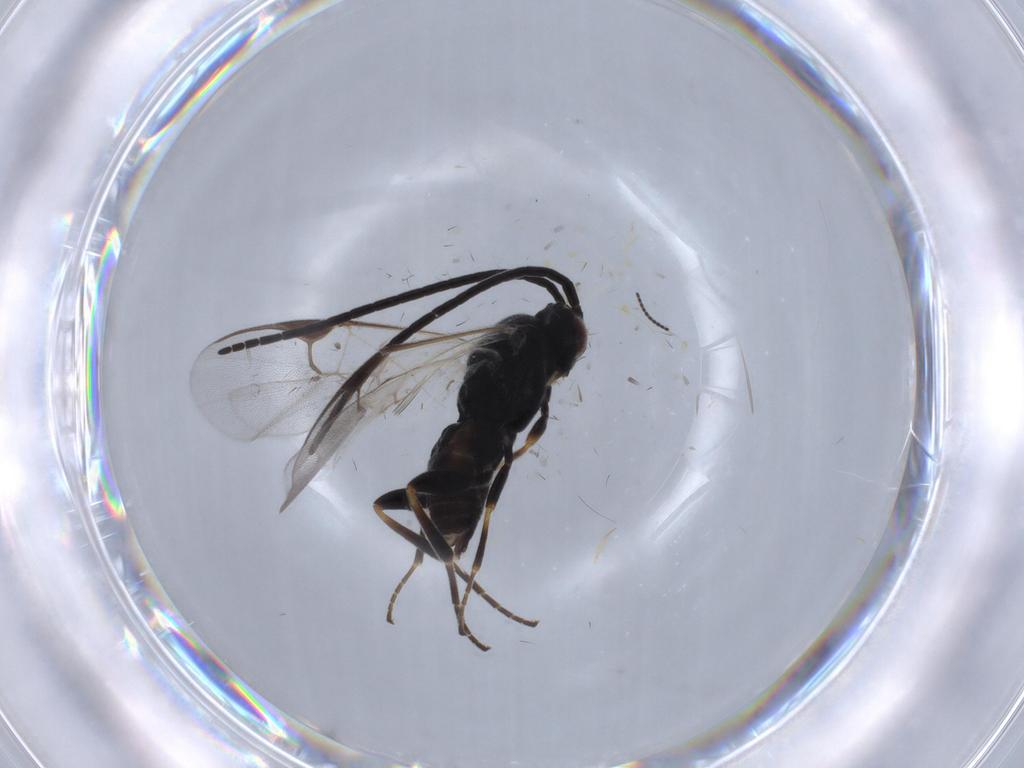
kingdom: Animalia
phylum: Arthropoda
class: Insecta
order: Hymenoptera
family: Braconidae
